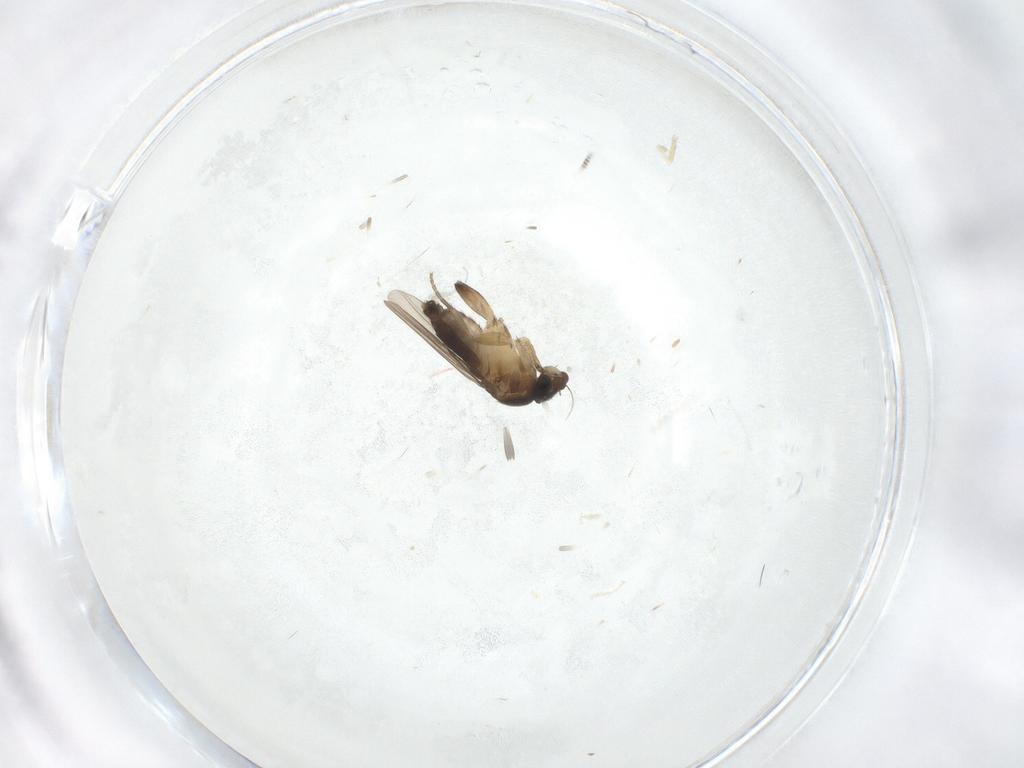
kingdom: Animalia
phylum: Arthropoda
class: Insecta
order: Diptera
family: Phoridae
